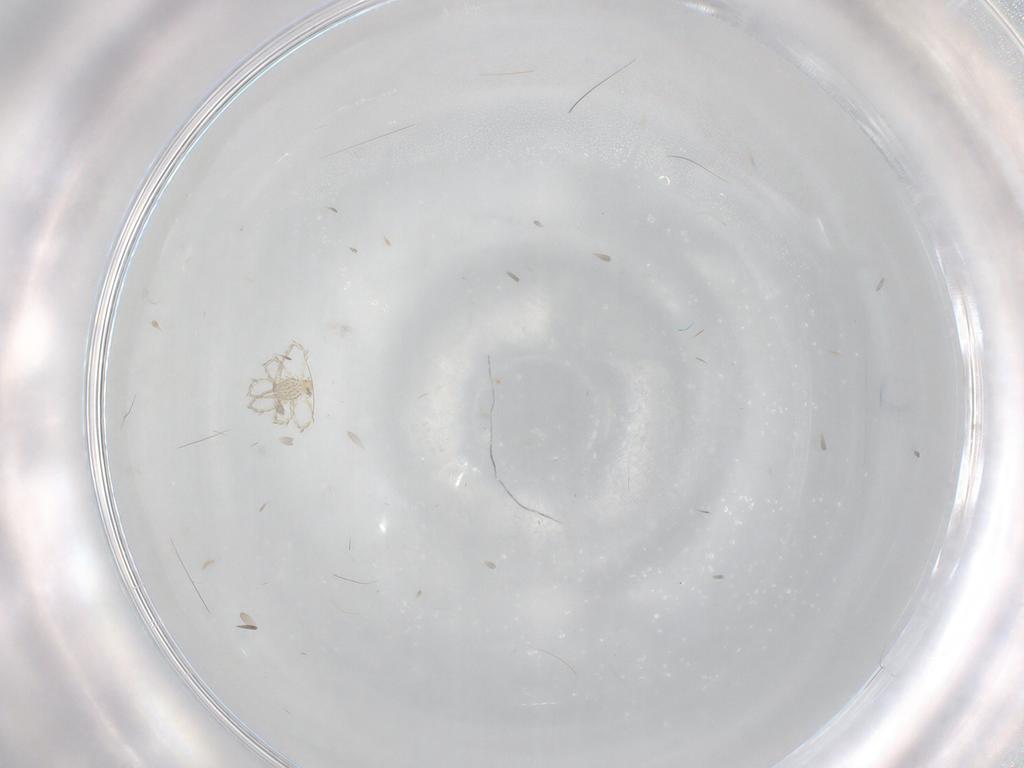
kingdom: Animalia
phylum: Arthropoda
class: Arachnida
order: Trombidiformes
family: Erythraeidae
